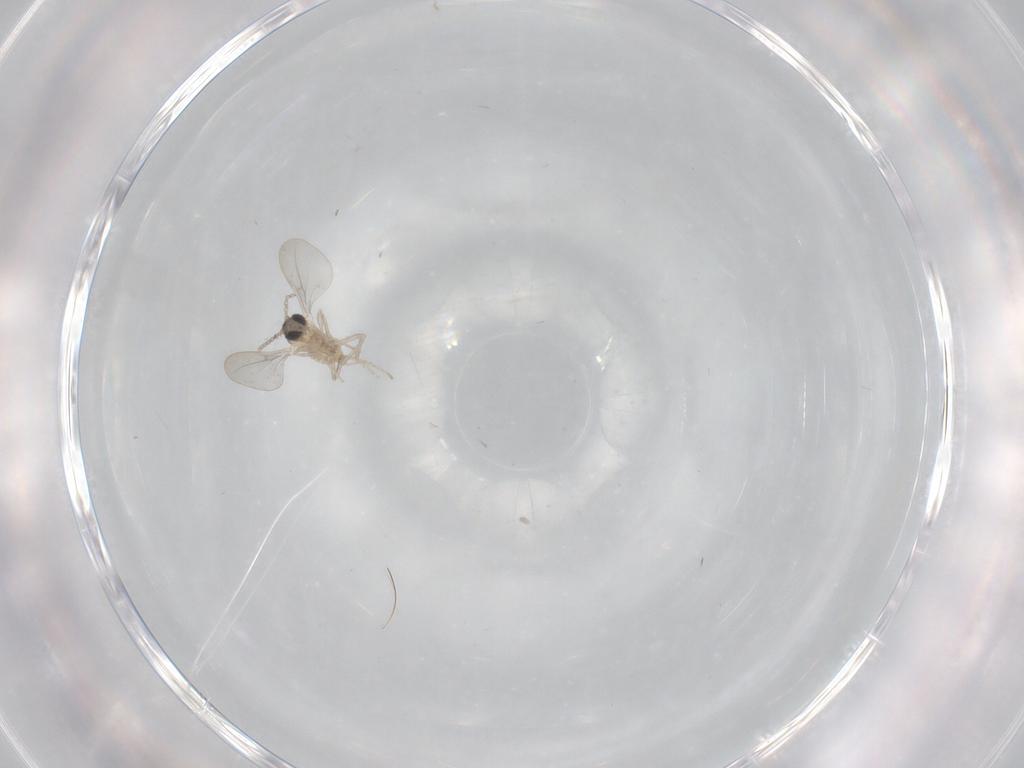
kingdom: Animalia
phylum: Arthropoda
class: Insecta
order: Diptera
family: Cecidomyiidae
